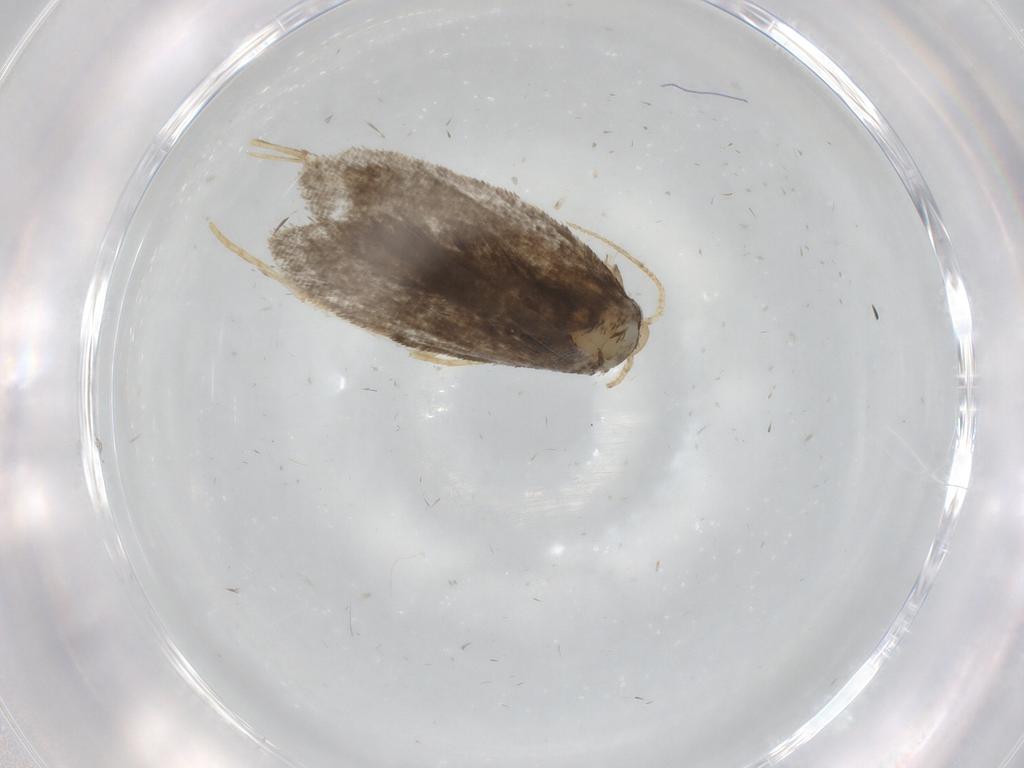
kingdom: Animalia
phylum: Arthropoda
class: Insecta
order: Lepidoptera
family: Psychidae
